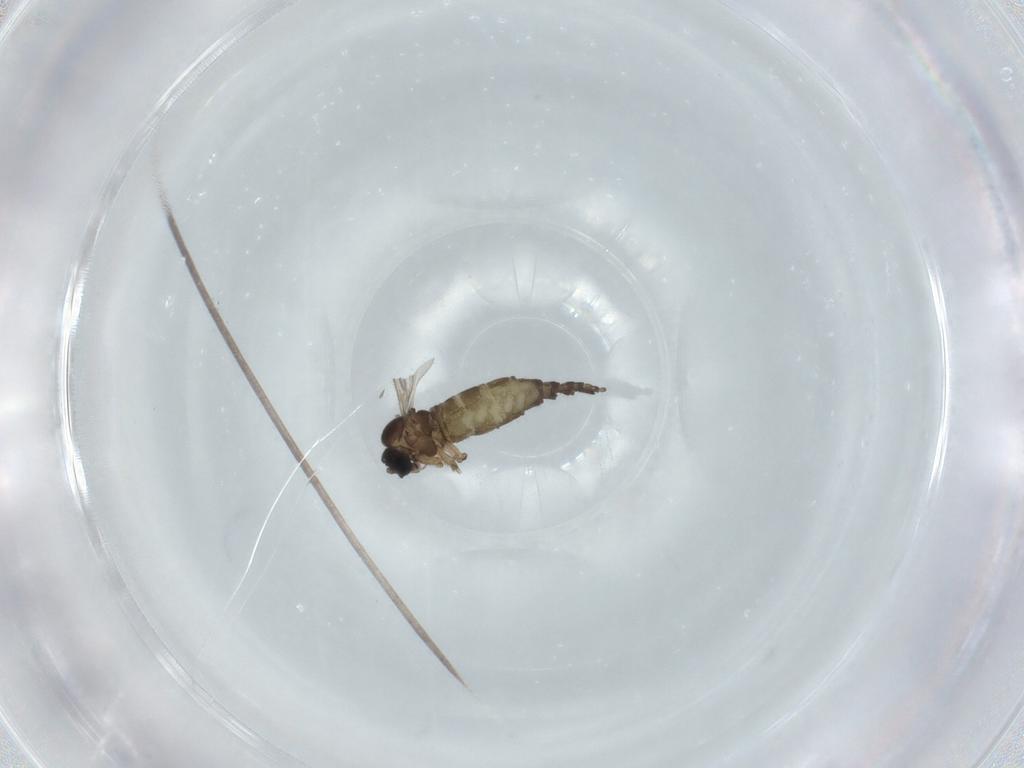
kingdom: Animalia
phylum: Arthropoda
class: Insecta
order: Diptera
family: Sciaridae
